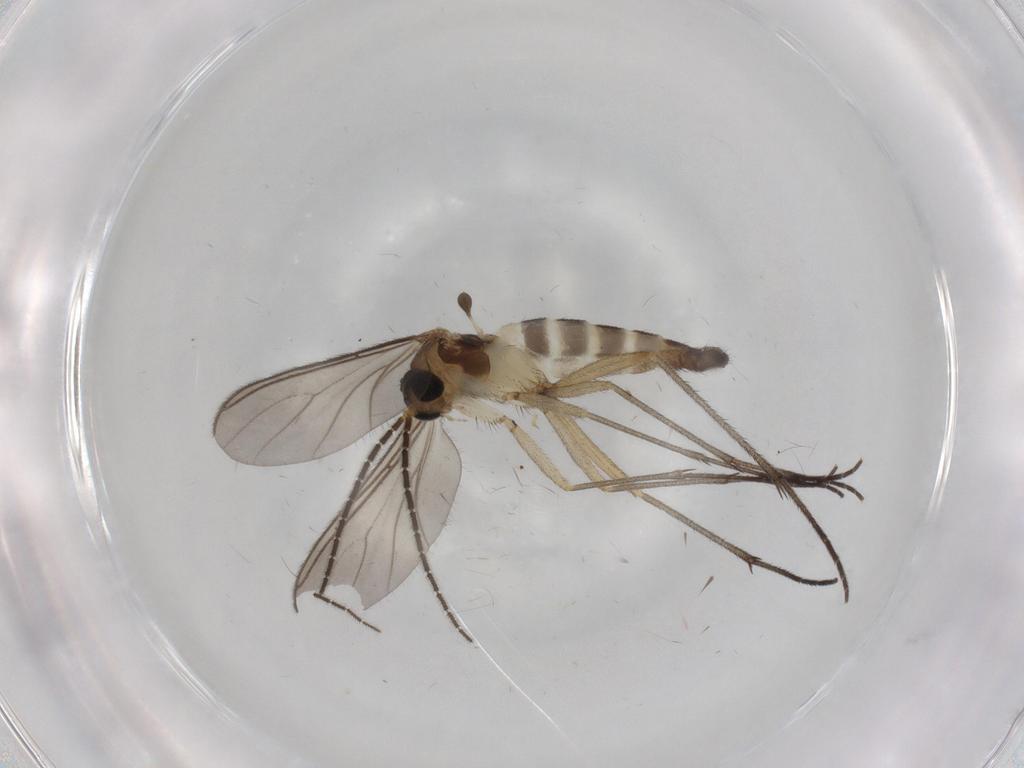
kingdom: Animalia
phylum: Arthropoda
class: Insecta
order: Diptera
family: Sciaridae
